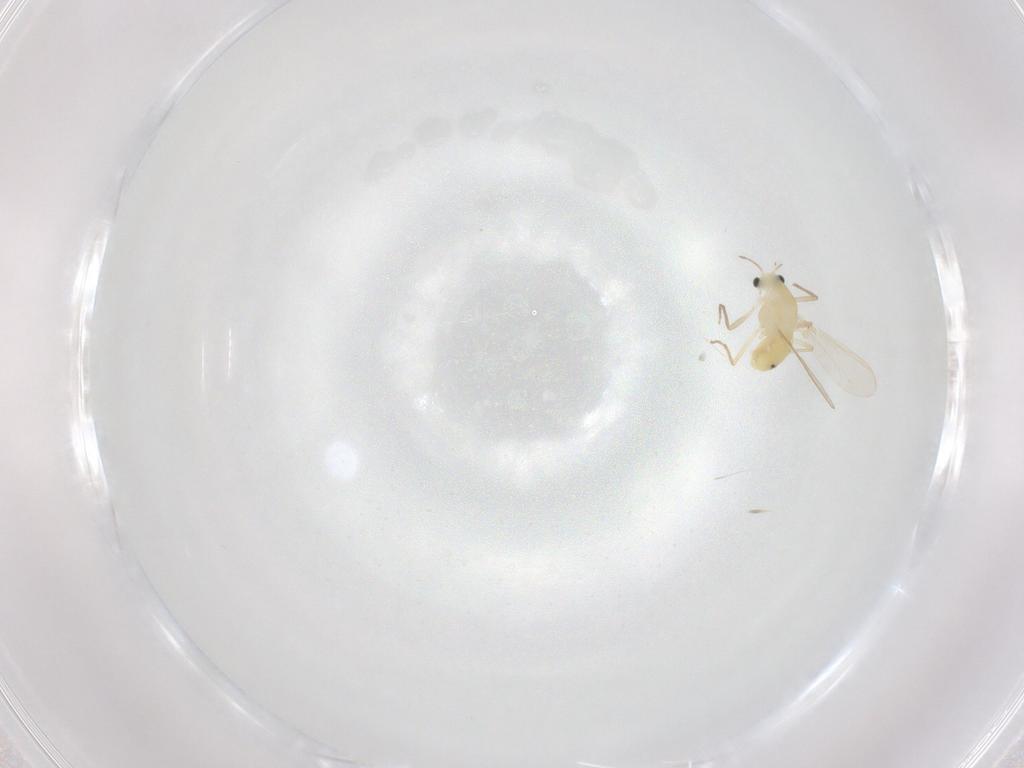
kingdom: Animalia
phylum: Arthropoda
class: Insecta
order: Diptera
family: Chironomidae
